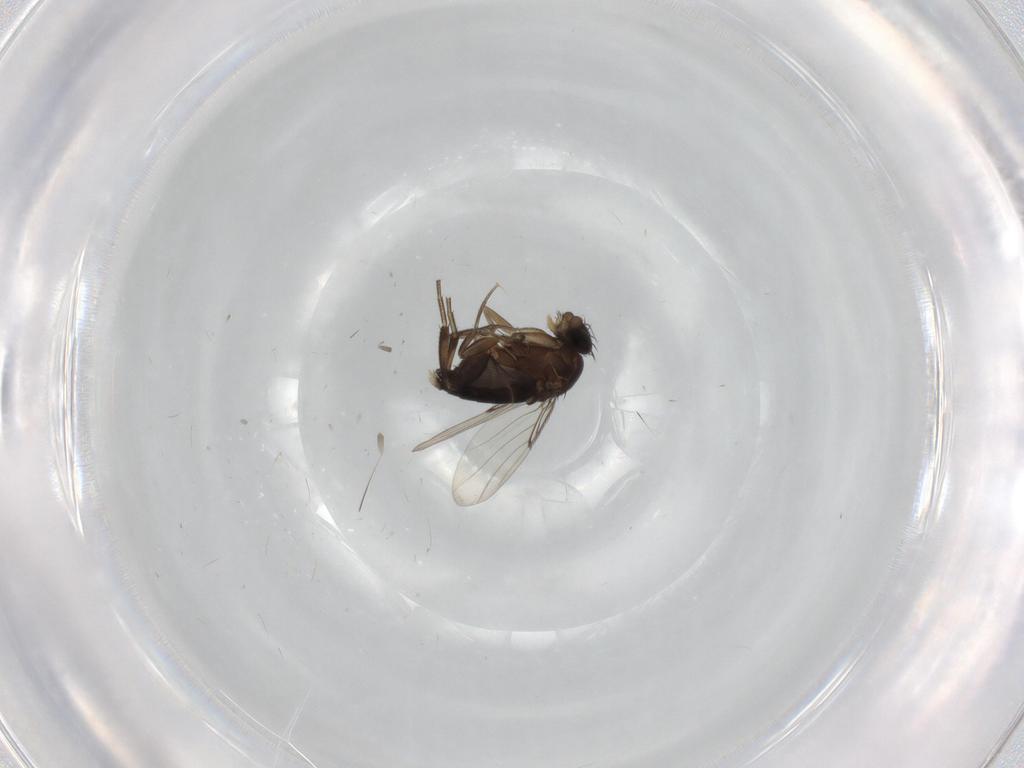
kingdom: Animalia
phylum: Arthropoda
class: Insecta
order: Diptera
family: Phoridae
